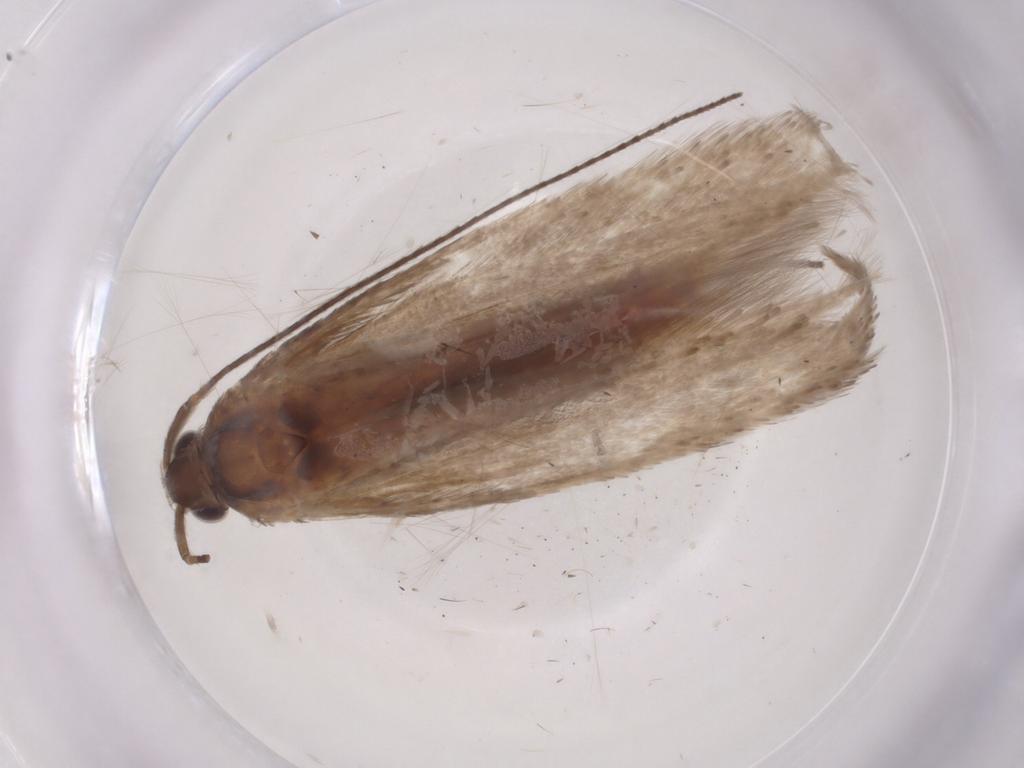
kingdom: Animalia
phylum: Arthropoda
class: Insecta
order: Lepidoptera
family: Coleophoridae
